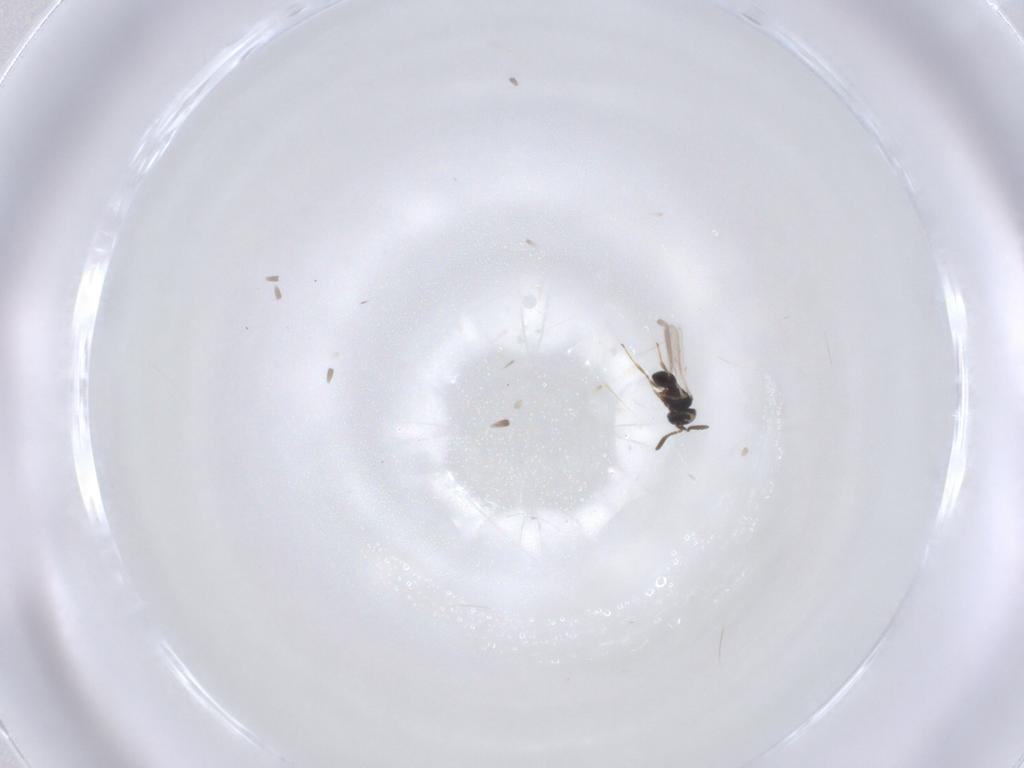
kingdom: Animalia
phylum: Arthropoda
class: Insecta
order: Hymenoptera
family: Scelionidae
